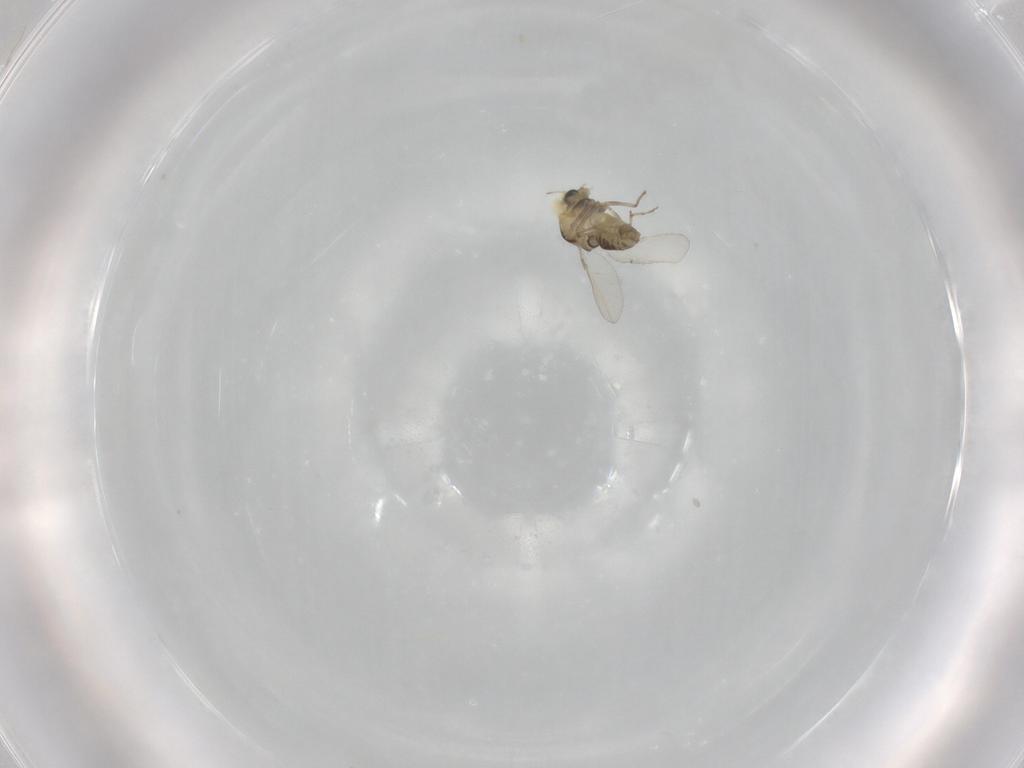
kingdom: Animalia
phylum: Arthropoda
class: Insecta
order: Diptera
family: Chironomidae
